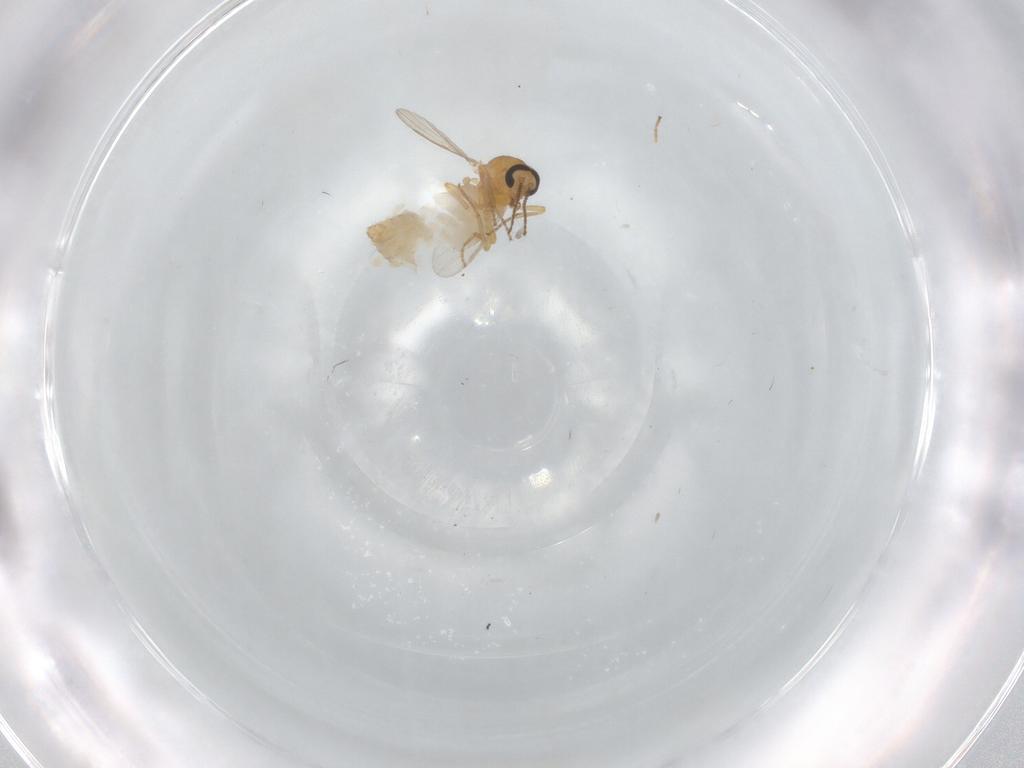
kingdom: Animalia
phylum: Arthropoda
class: Insecta
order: Diptera
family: Ceratopogonidae
